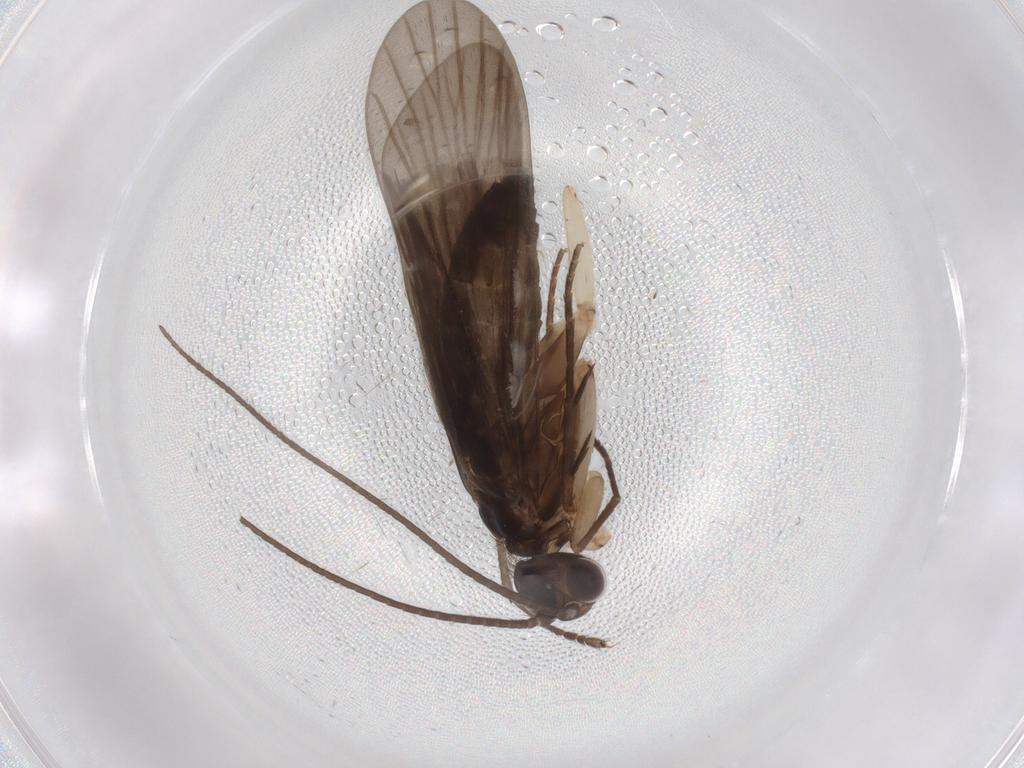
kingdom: Animalia
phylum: Arthropoda
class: Insecta
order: Trichoptera
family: Philopotamidae
